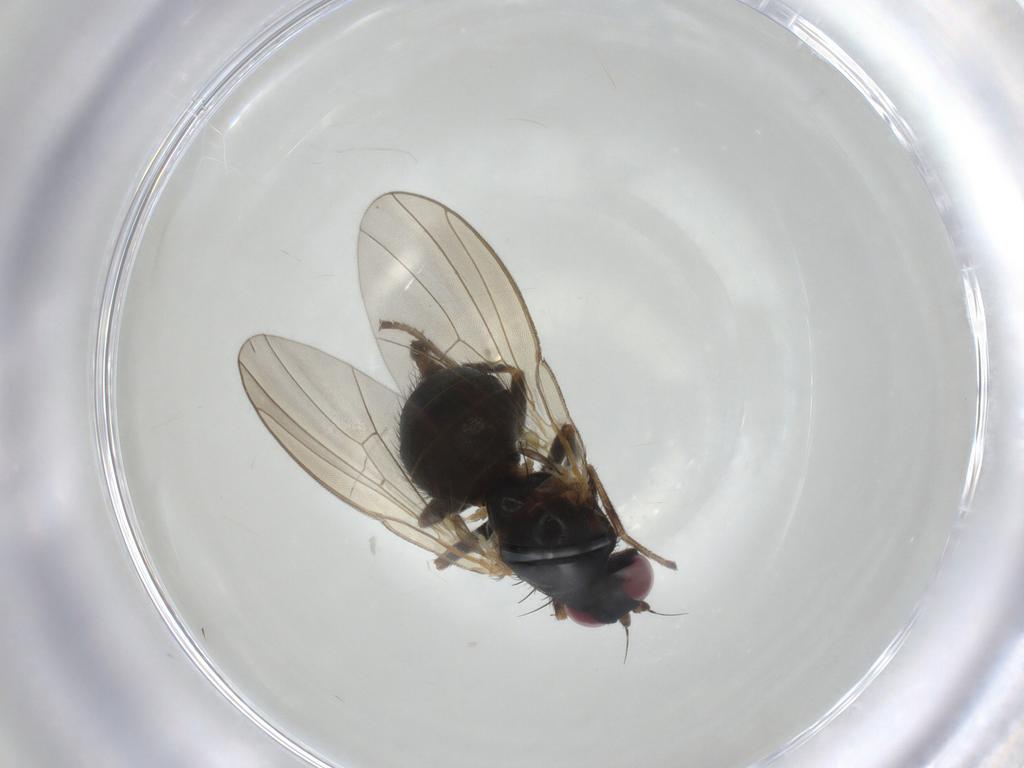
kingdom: Animalia
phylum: Arthropoda
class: Insecta
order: Diptera
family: Agromyzidae
